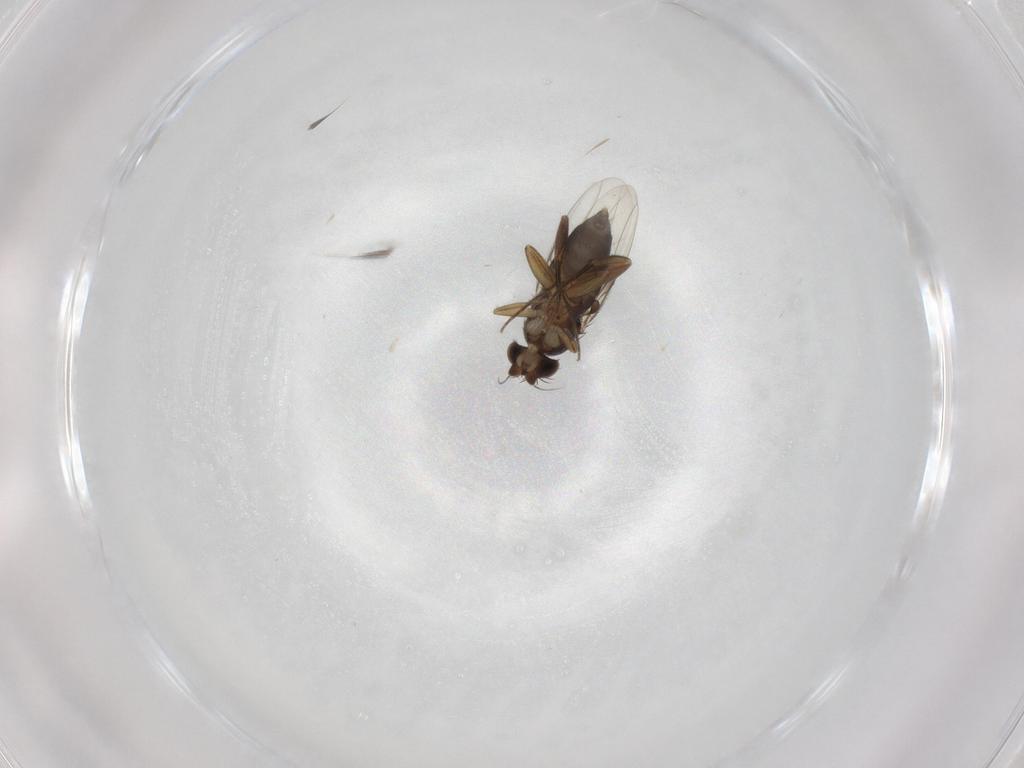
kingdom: Animalia
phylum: Arthropoda
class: Insecta
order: Diptera
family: Phoridae
